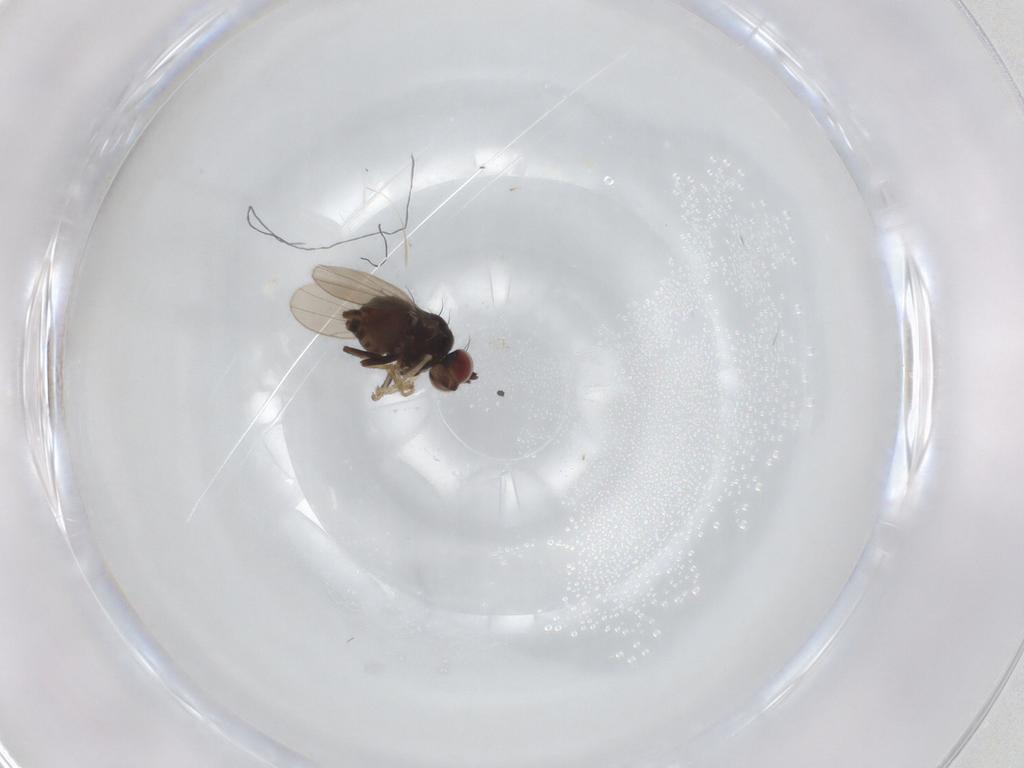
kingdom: Animalia
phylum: Arthropoda
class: Insecta
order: Diptera
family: Ephydridae
